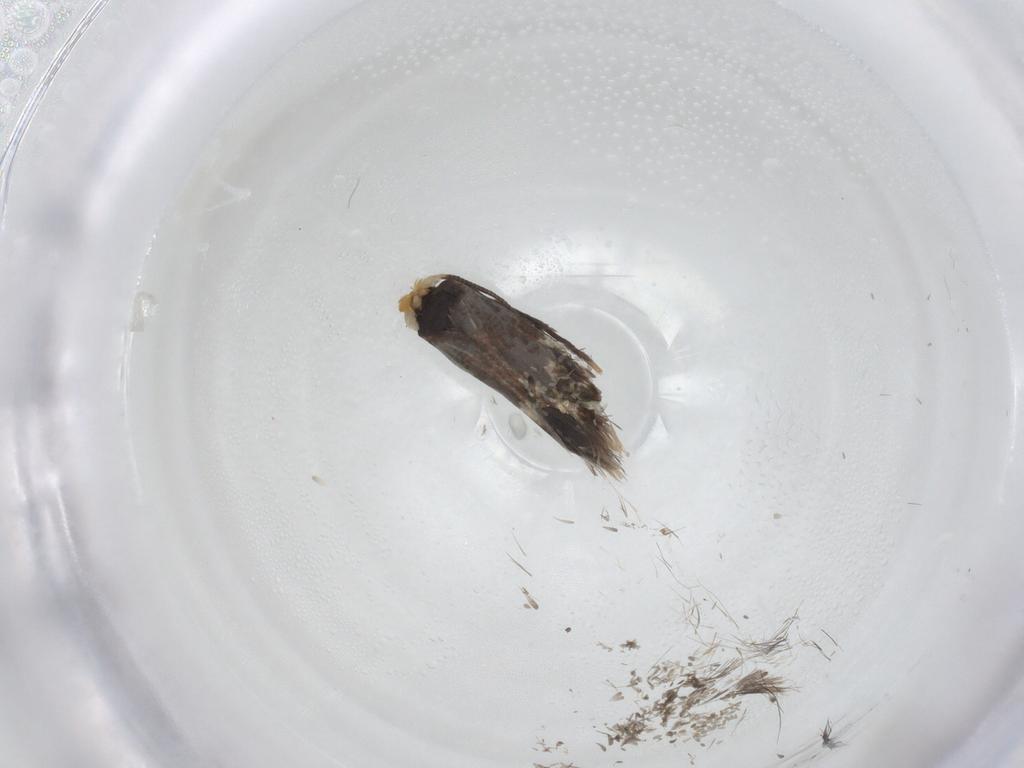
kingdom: Animalia
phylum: Arthropoda
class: Insecta
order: Lepidoptera
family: Nepticulidae
